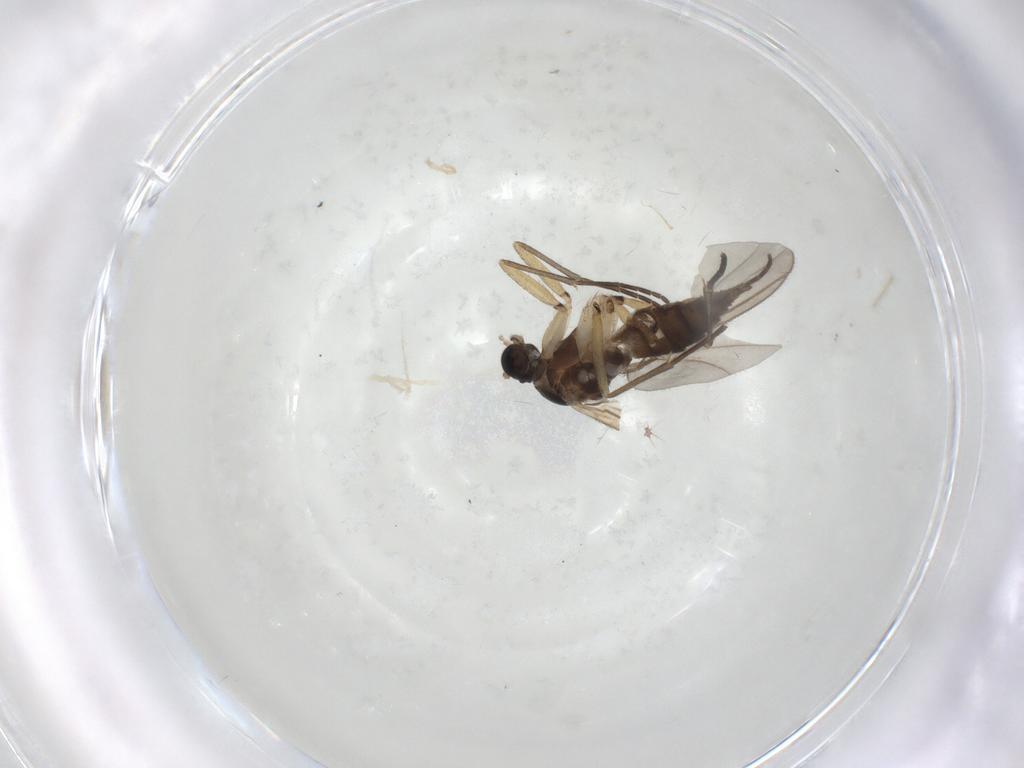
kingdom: Animalia
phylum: Arthropoda
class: Insecta
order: Diptera
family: Sciaridae
